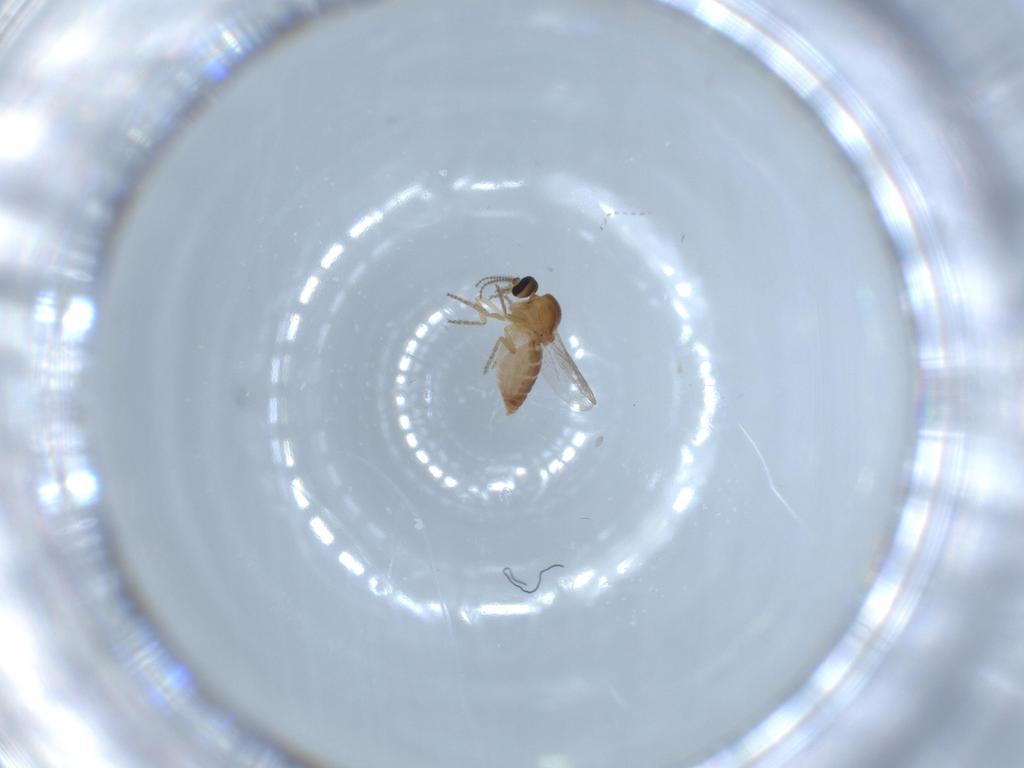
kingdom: Animalia
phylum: Arthropoda
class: Insecta
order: Diptera
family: Ceratopogonidae
